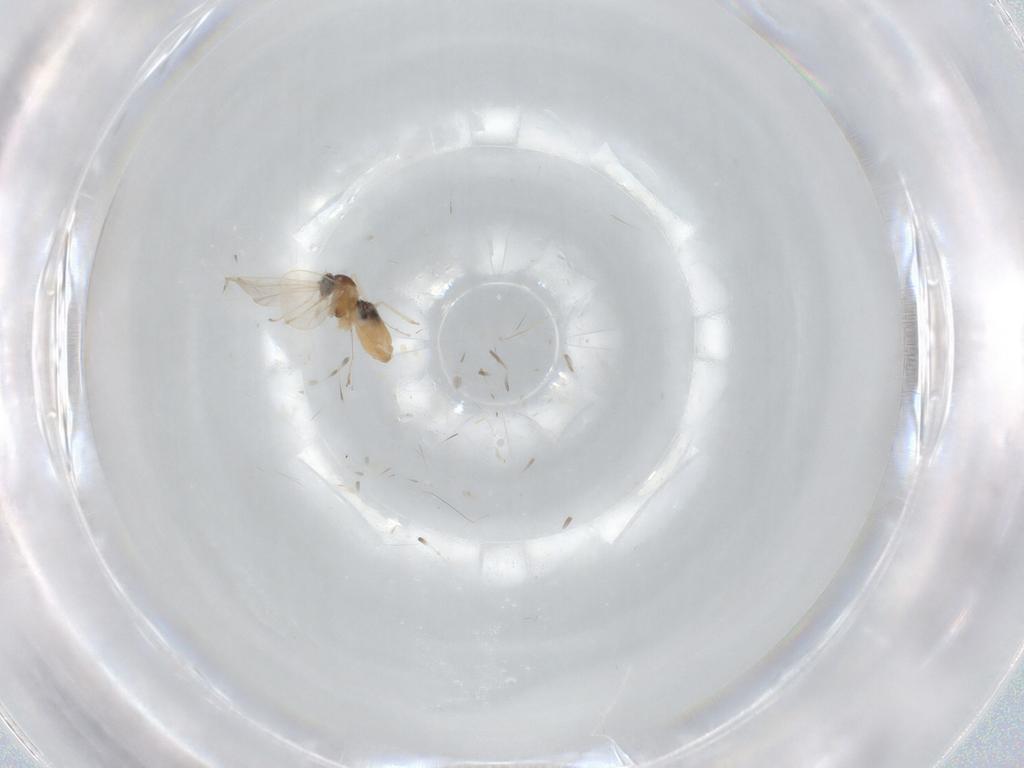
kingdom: Animalia
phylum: Arthropoda
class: Insecta
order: Diptera
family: Cecidomyiidae
